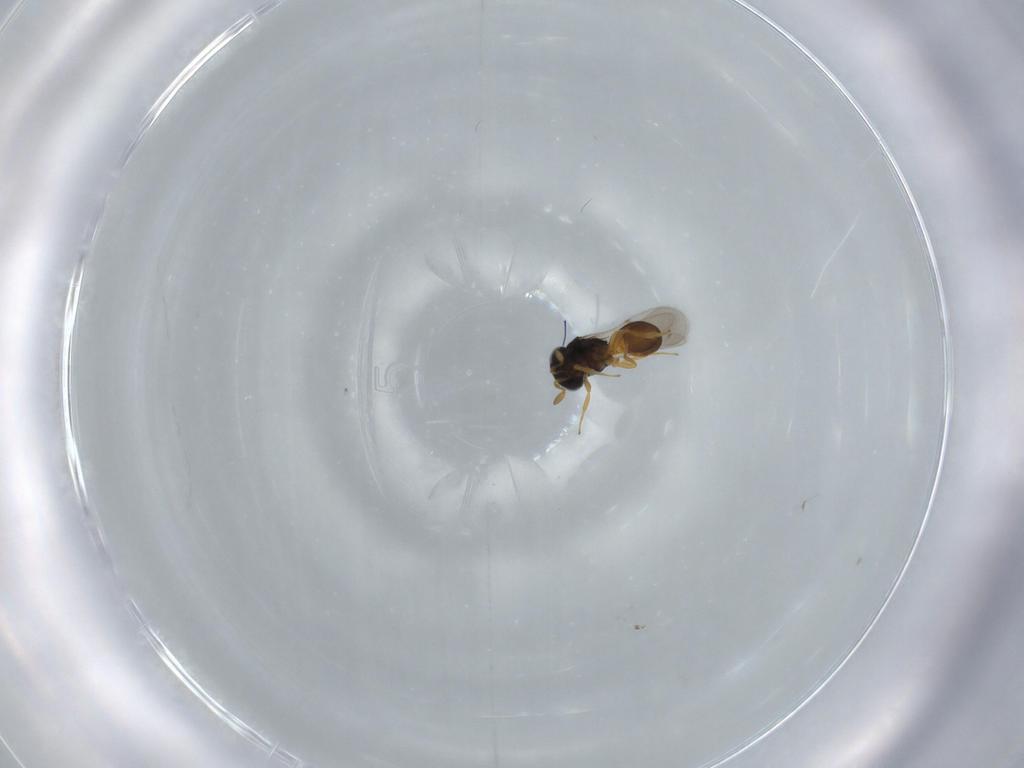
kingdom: Animalia
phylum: Arthropoda
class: Insecta
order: Hymenoptera
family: Scelionidae
